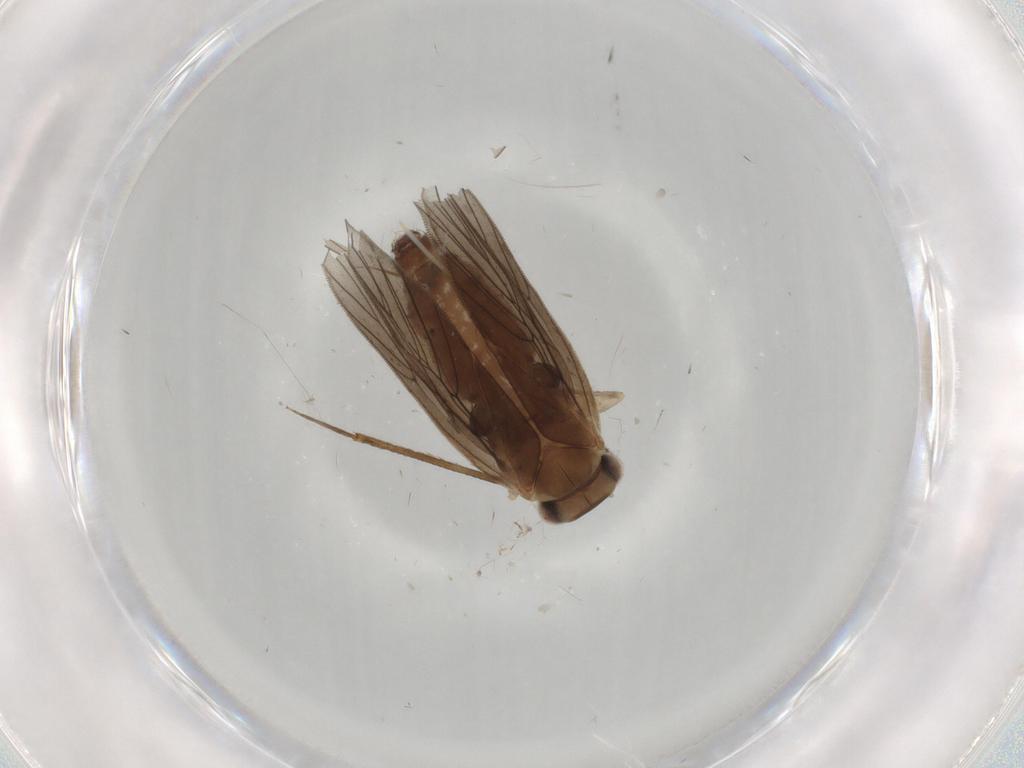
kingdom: Animalia
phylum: Arthropoda
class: Insecta
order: Psocodea
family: Lepidopsocidae
